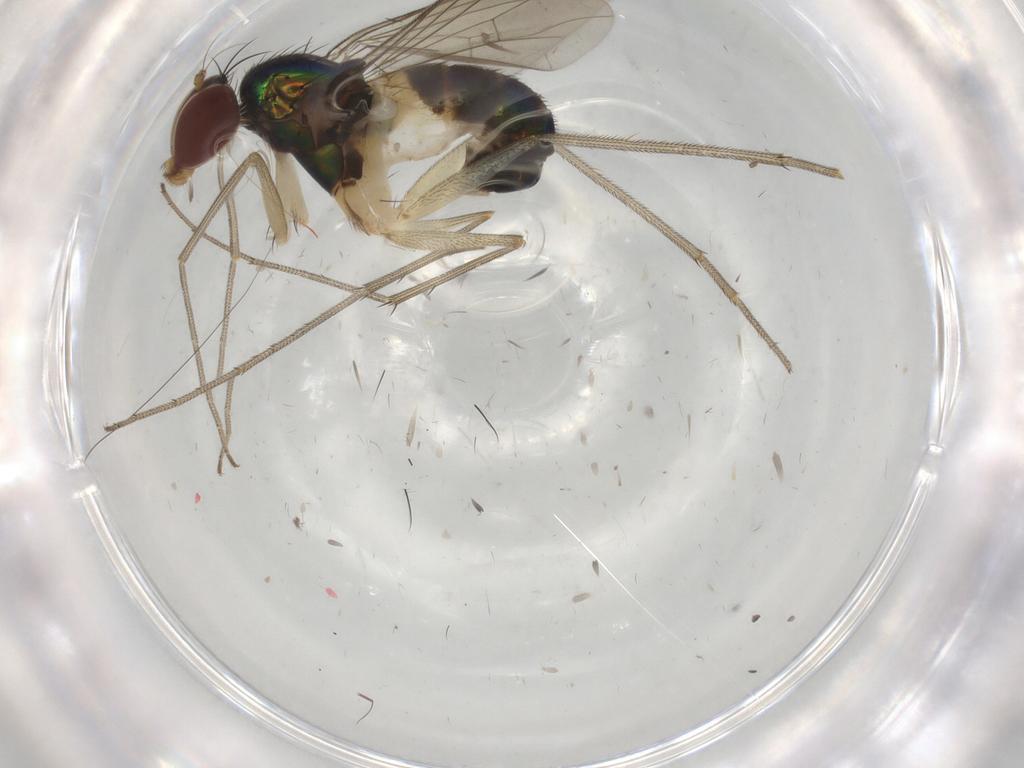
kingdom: Animalia
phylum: Arthropoda
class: Insecta
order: Diptera
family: Dolichopodidae
